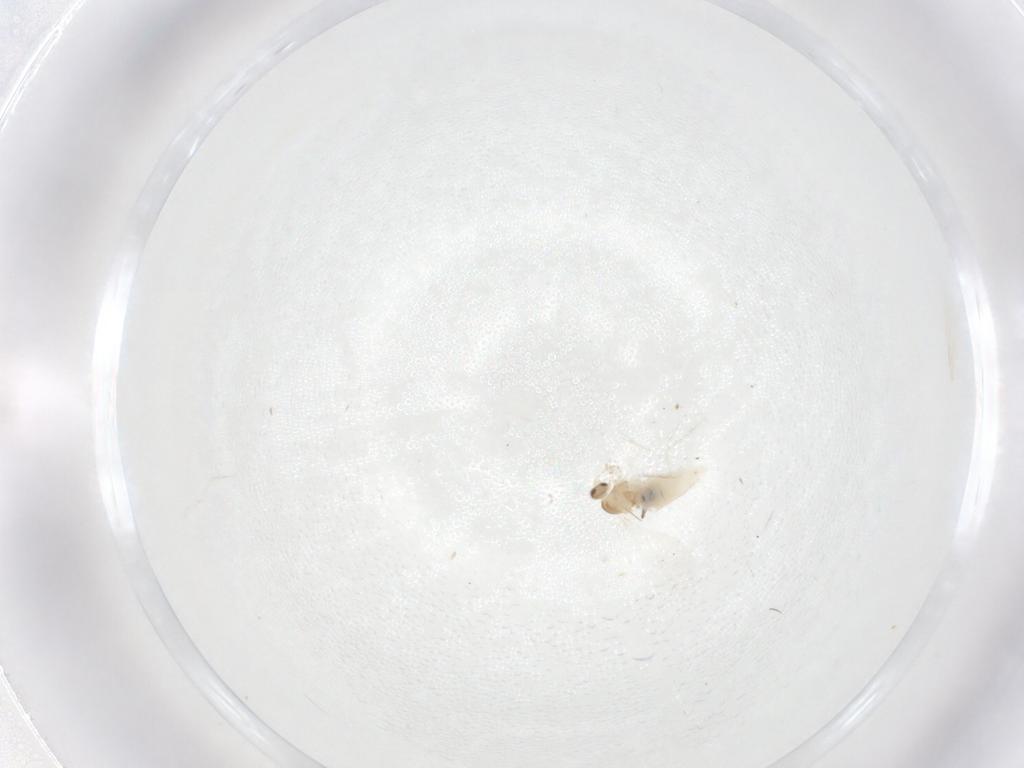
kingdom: Animalia
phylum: Arthropoda
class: Insecta
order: Diptera
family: Cecidomyiidae
